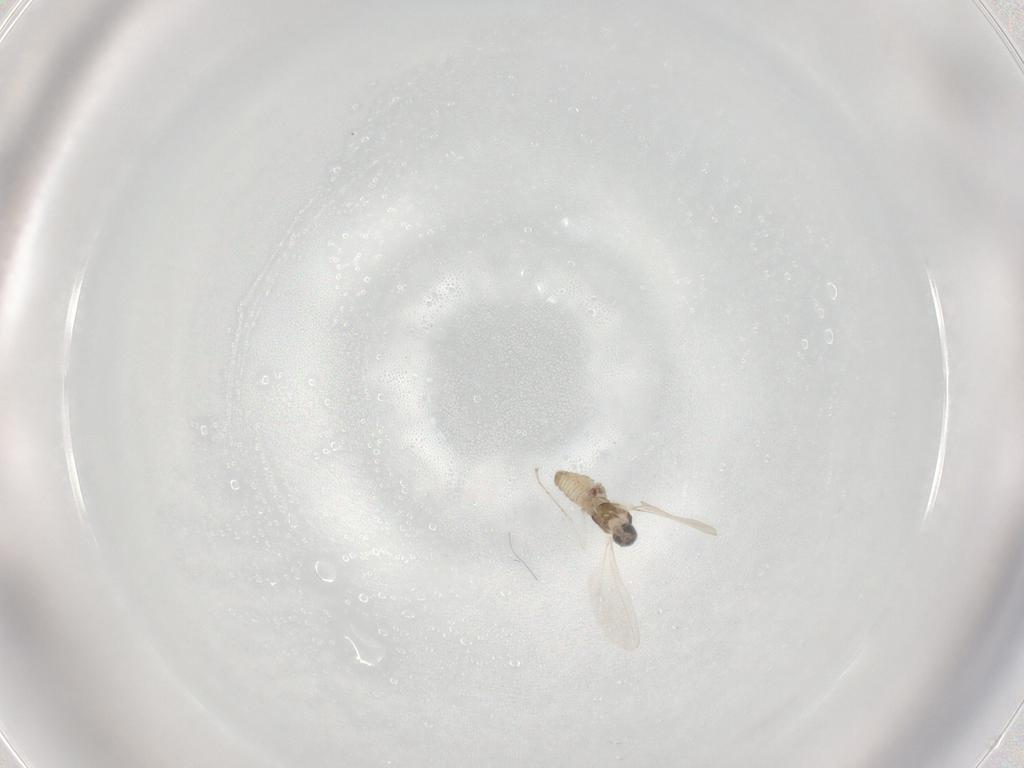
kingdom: Animalia
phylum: Arthropoda
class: Insecta
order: Diptera
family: Cecidomyiidae
